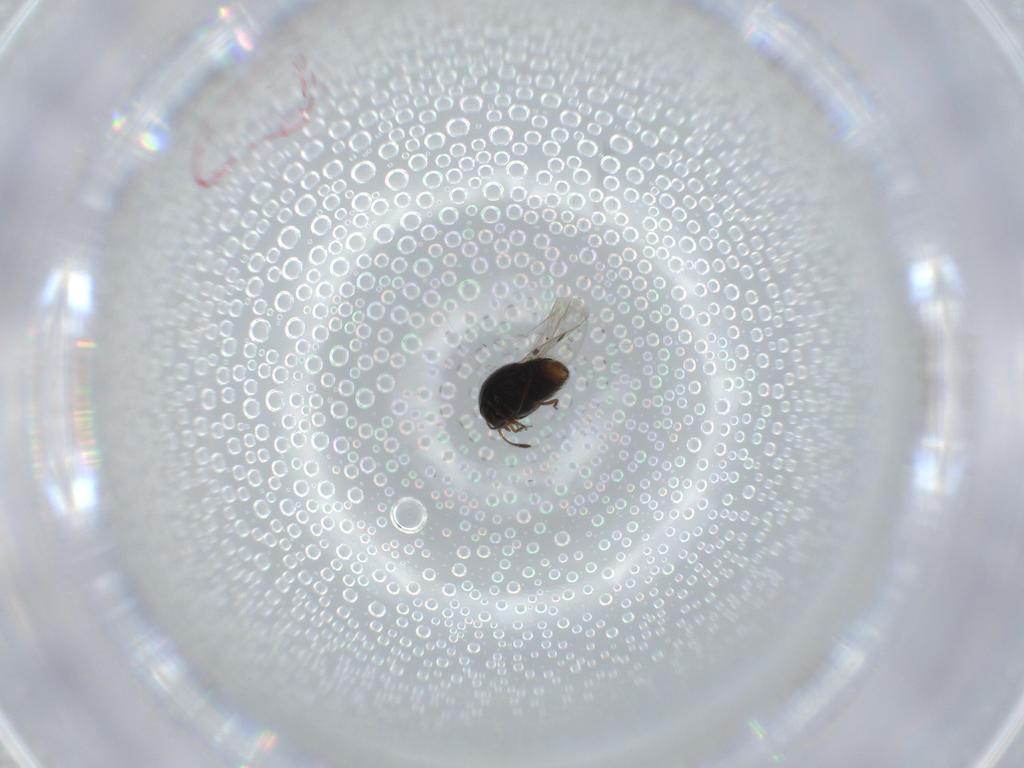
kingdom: Animalia
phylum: Arthropoda
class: Insecta
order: Coleoptera
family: Staphylinidae
